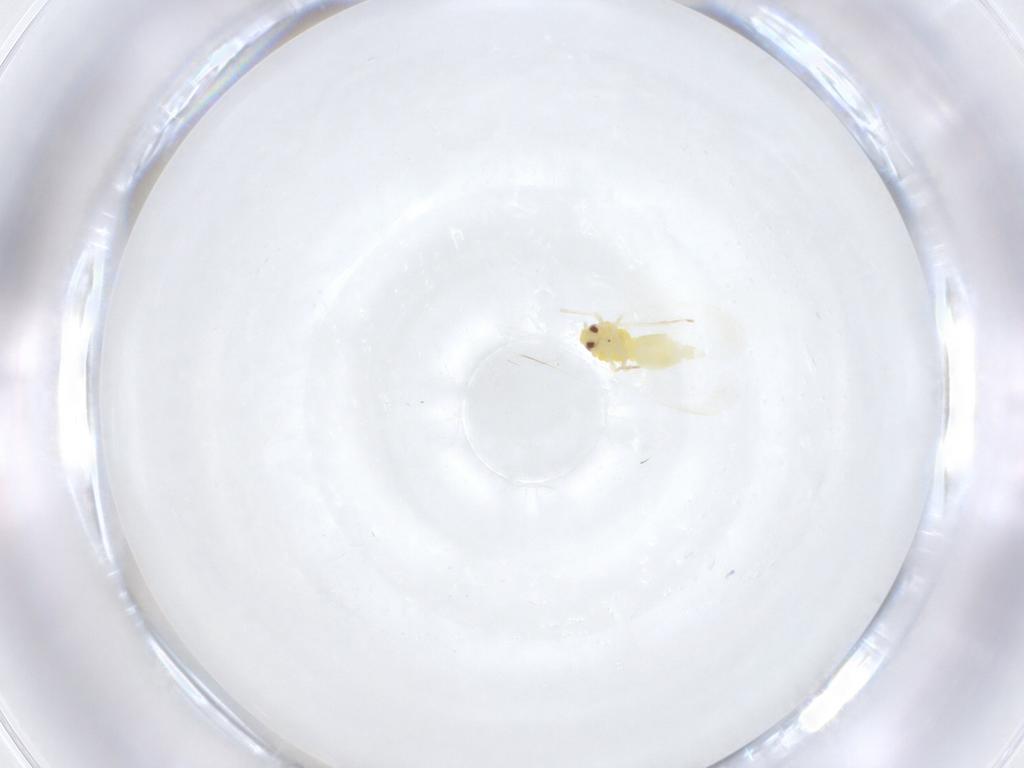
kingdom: Animalia
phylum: Arthropoda
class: Insecta
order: Hemiptera
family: Aleyrodidae
